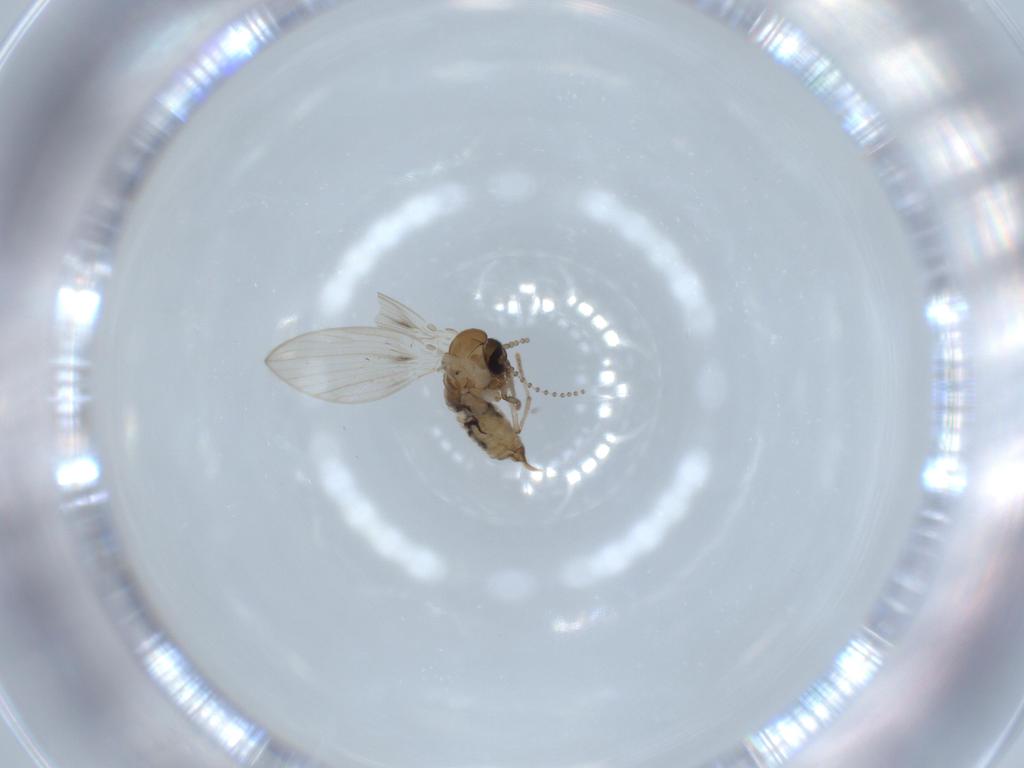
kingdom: Animalia
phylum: Arthropoda
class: Insecta
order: Diptera
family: Psychodidae
